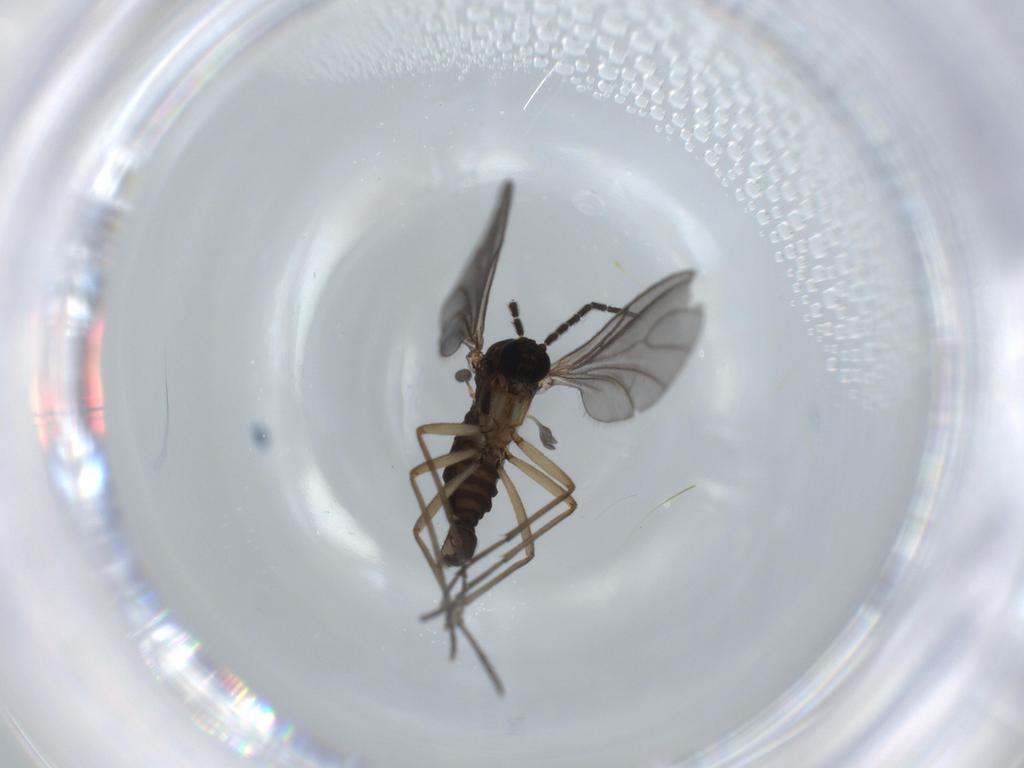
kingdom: Animalia
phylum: Arthropoda
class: Insecta
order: Diptera
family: Sciaridae
